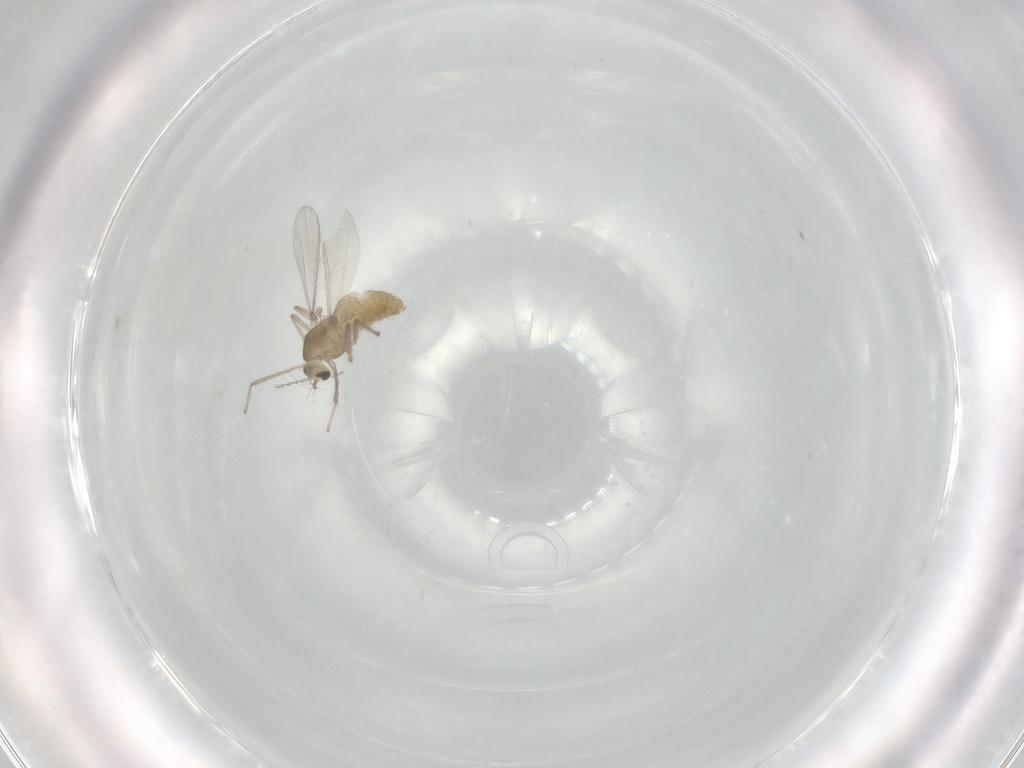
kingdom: Animalia
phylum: Arthropoda
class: Insecta
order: Diptera
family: Chironomidae
